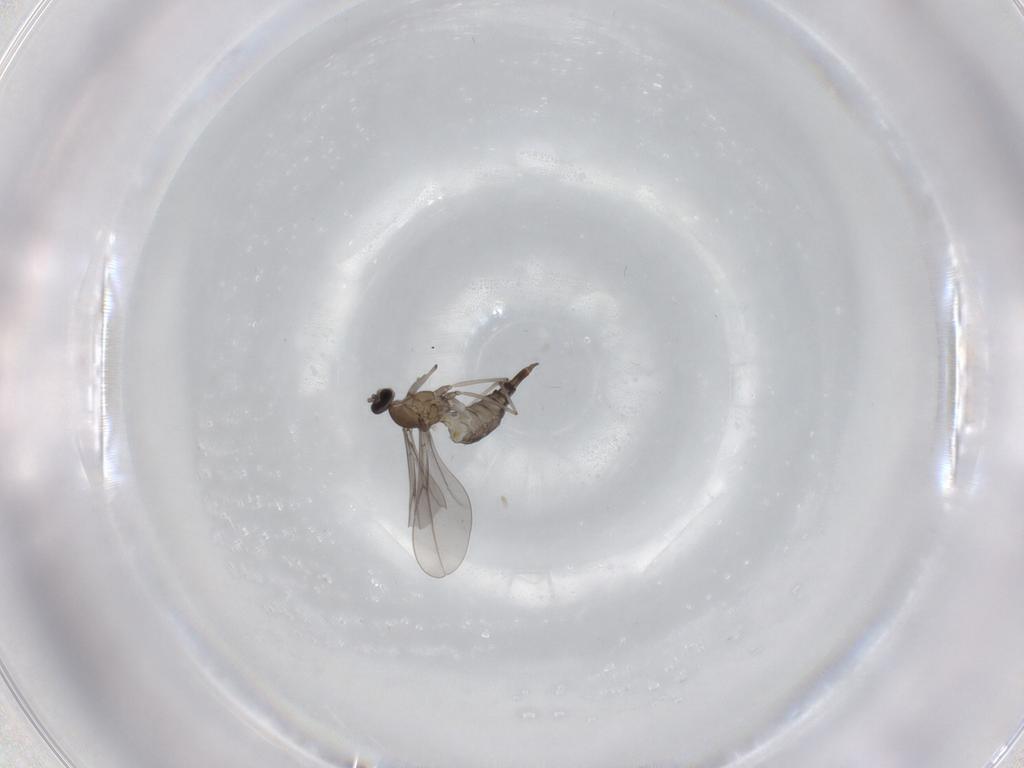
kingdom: Animalia
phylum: Arthropoda
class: Insecta
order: Diptera
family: Cecidomyiidae
